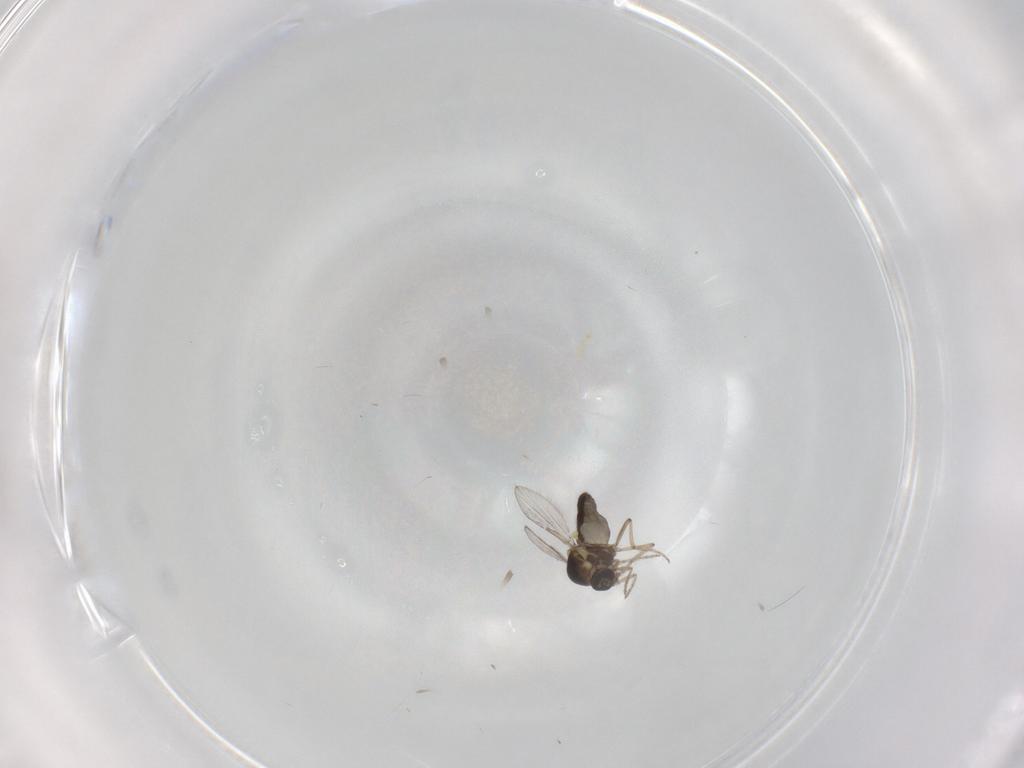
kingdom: Animalia
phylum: Arthropoda
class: Insecta
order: Diptera
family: Ceratopogonidae
